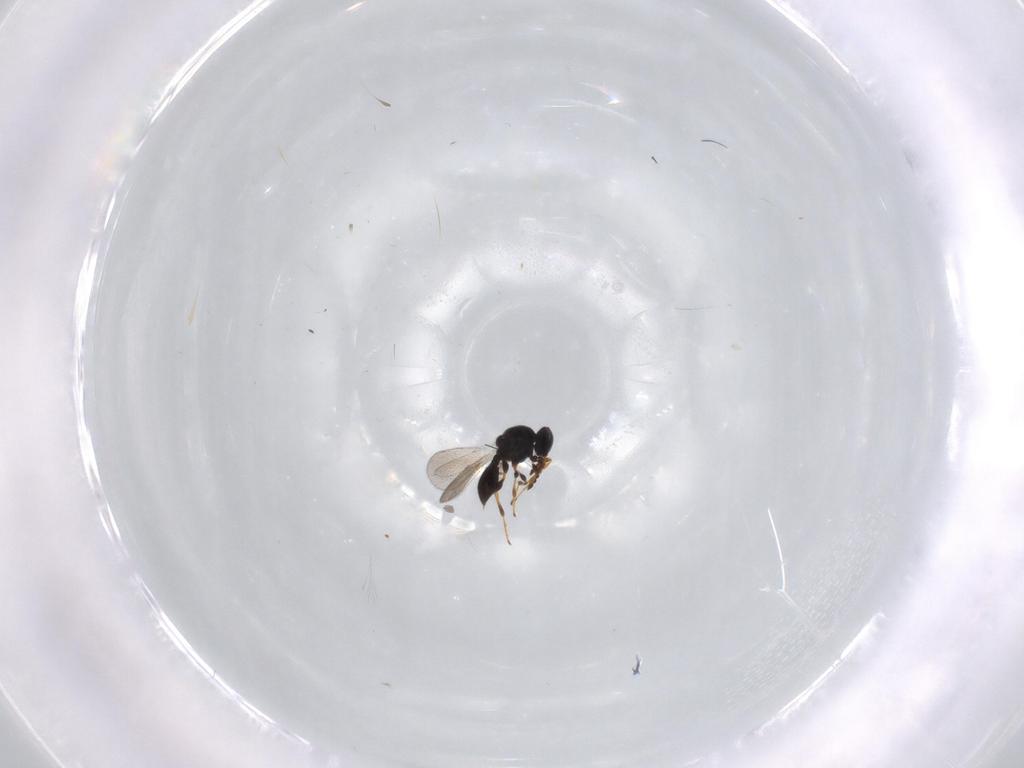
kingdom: Animalia
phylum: Arthropoda
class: Insecta
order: Hymenoptera
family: Platygastridae
